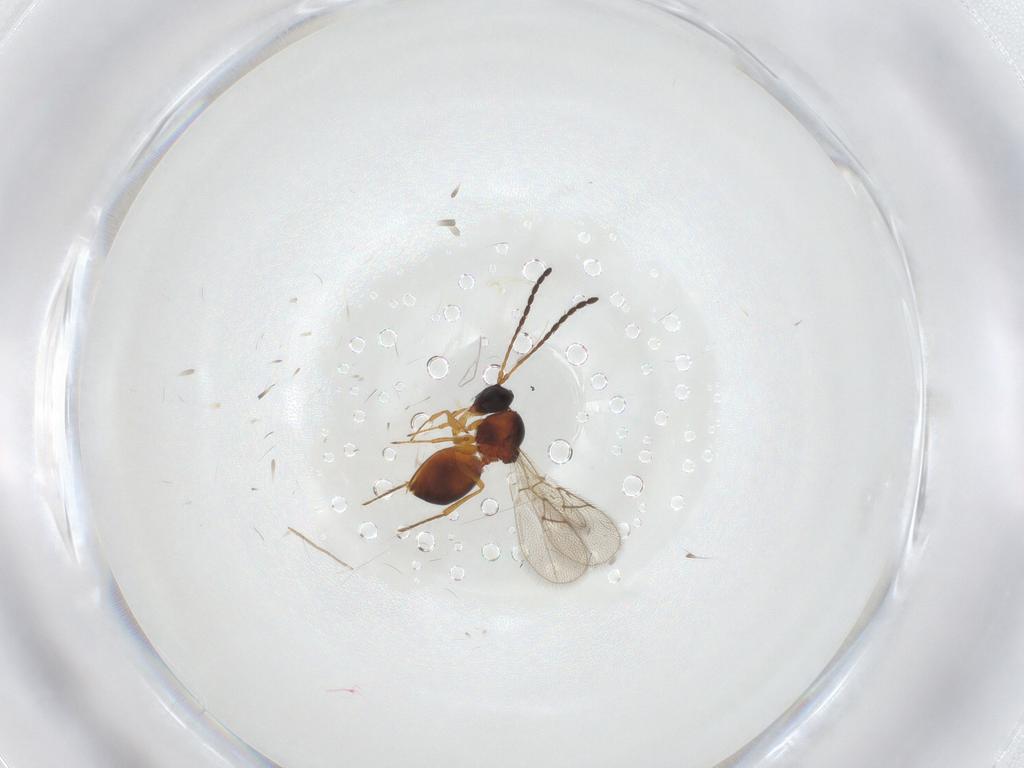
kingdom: Animalia
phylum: Arthropoda
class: Insecta
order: Hymenoptera
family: Figitidae
